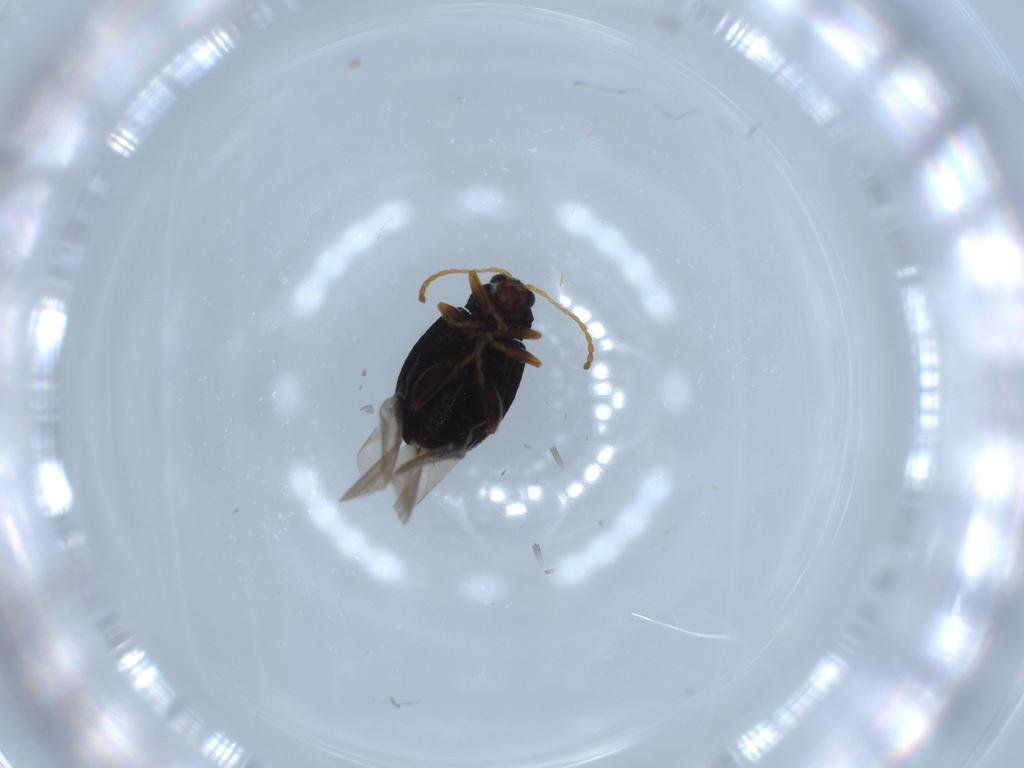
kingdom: Animalia
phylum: Arthropoda
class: Insecta
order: Coleoptera
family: Chrysomelidae
